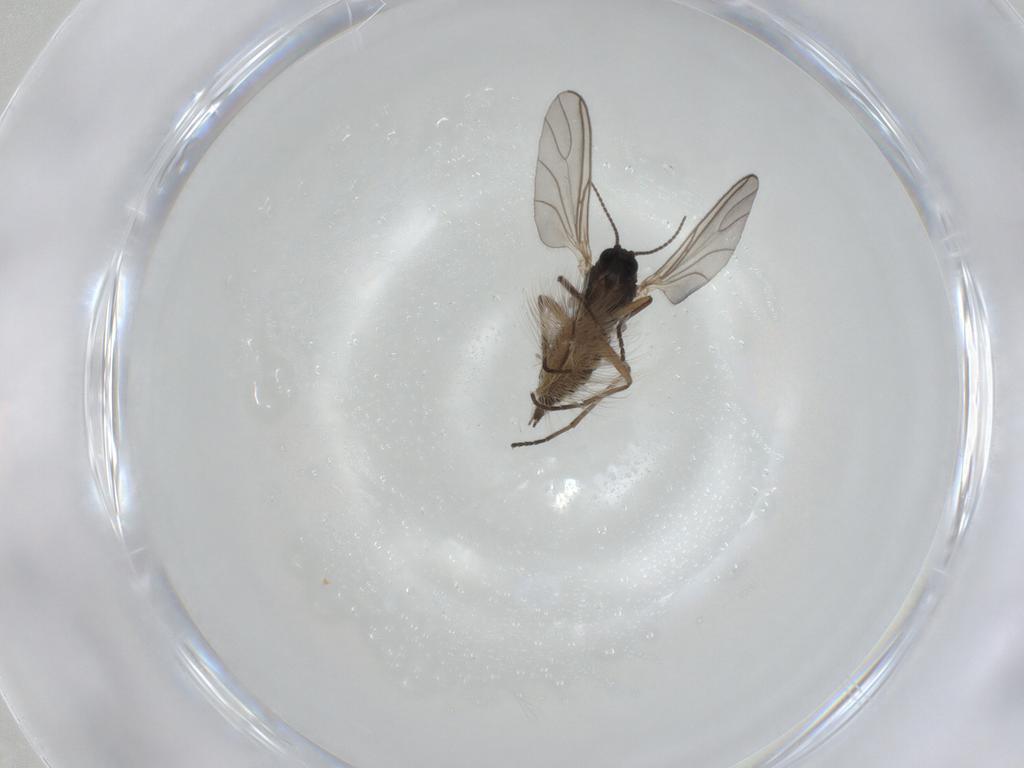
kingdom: Animalia
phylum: Arthropoda
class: Insecta
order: Diptera
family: Sciaridae
